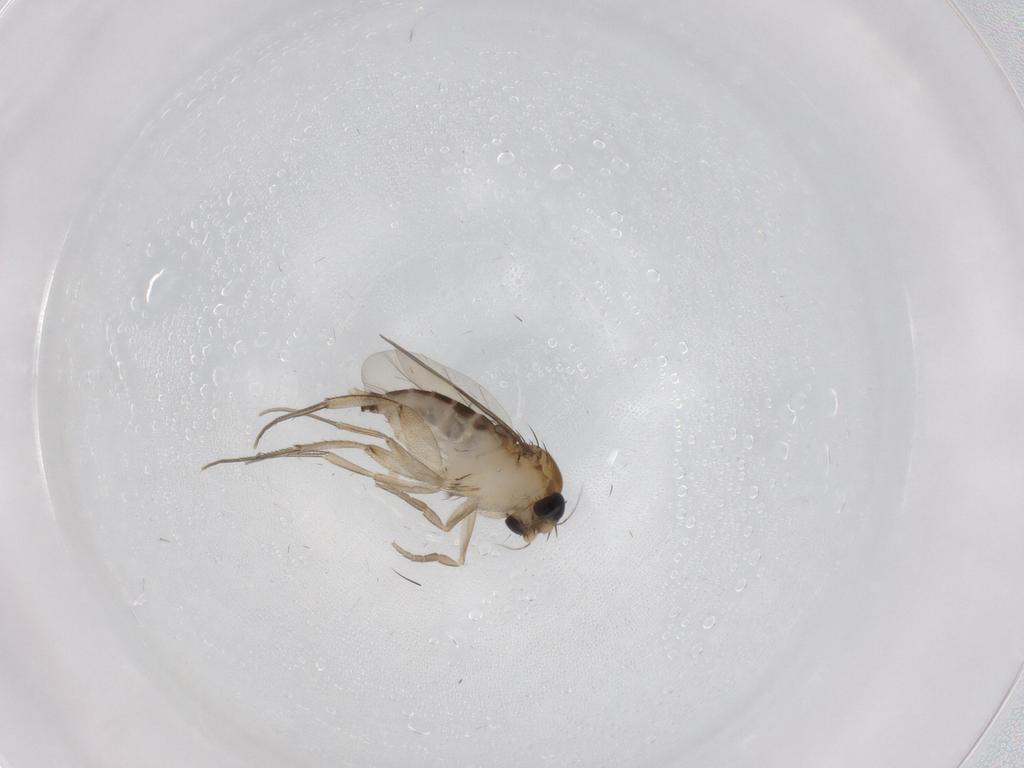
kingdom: Animalia
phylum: Arthropoda
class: Insecta
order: Diptera
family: Phoridae
